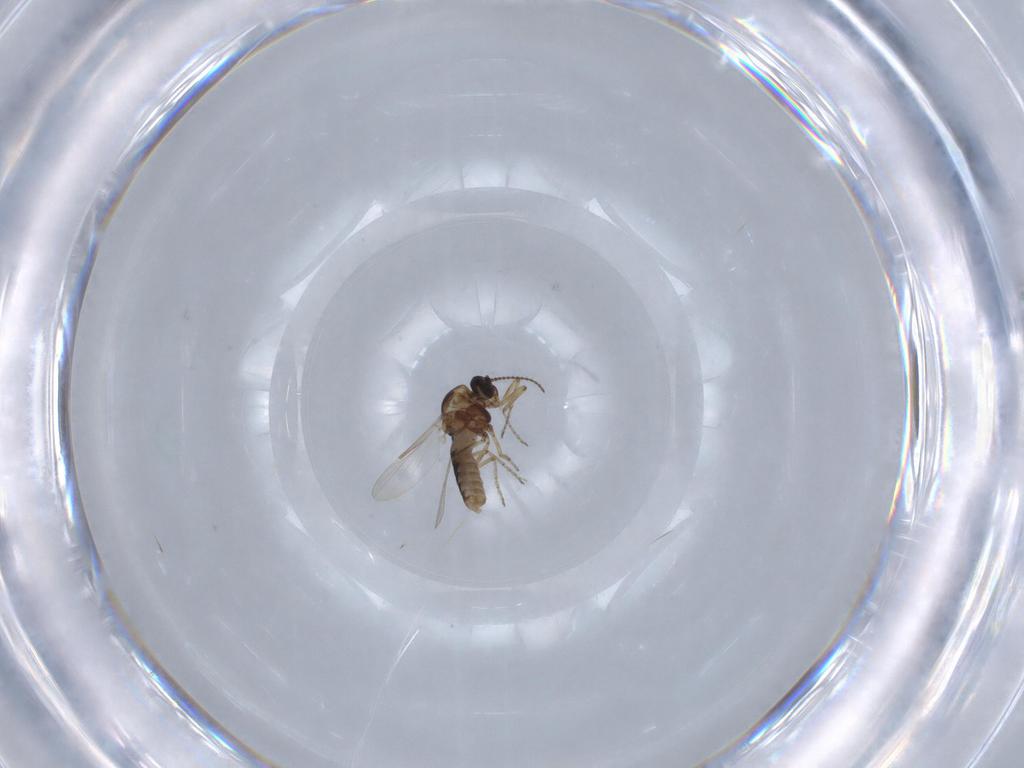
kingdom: Animalia
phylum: Arthropoda
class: Insecta
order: Diptera
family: Ceratopogonidae
